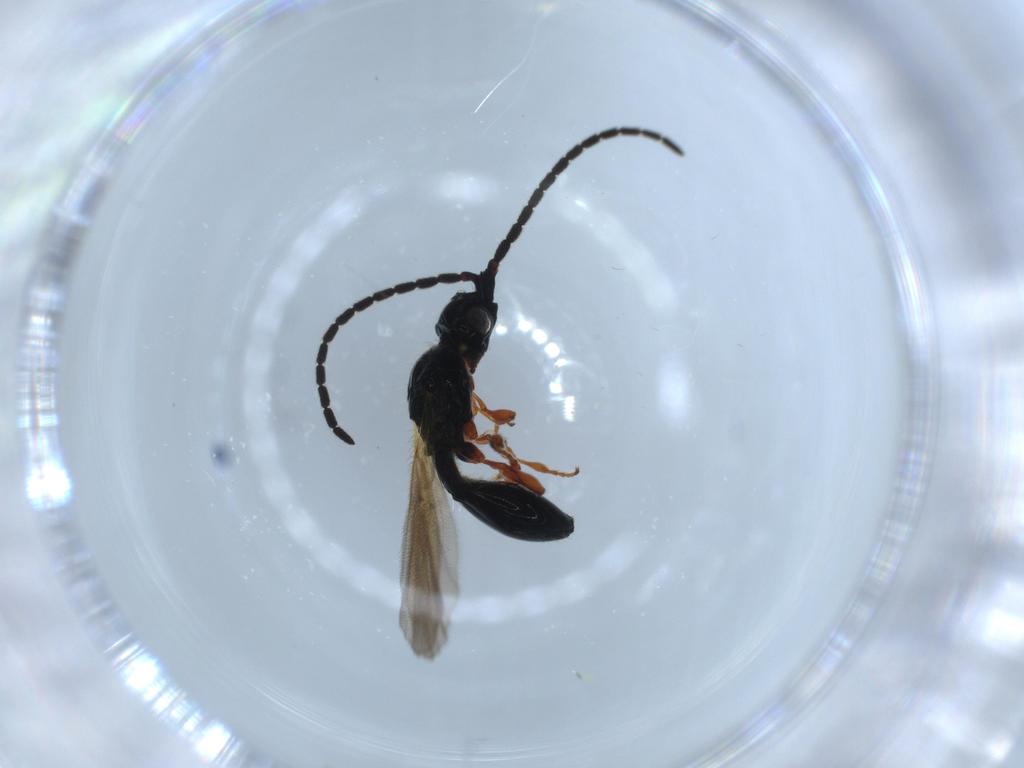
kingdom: Animalia
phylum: Arthropoda
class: Insecta
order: Hymenoptera
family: Diapriidae
